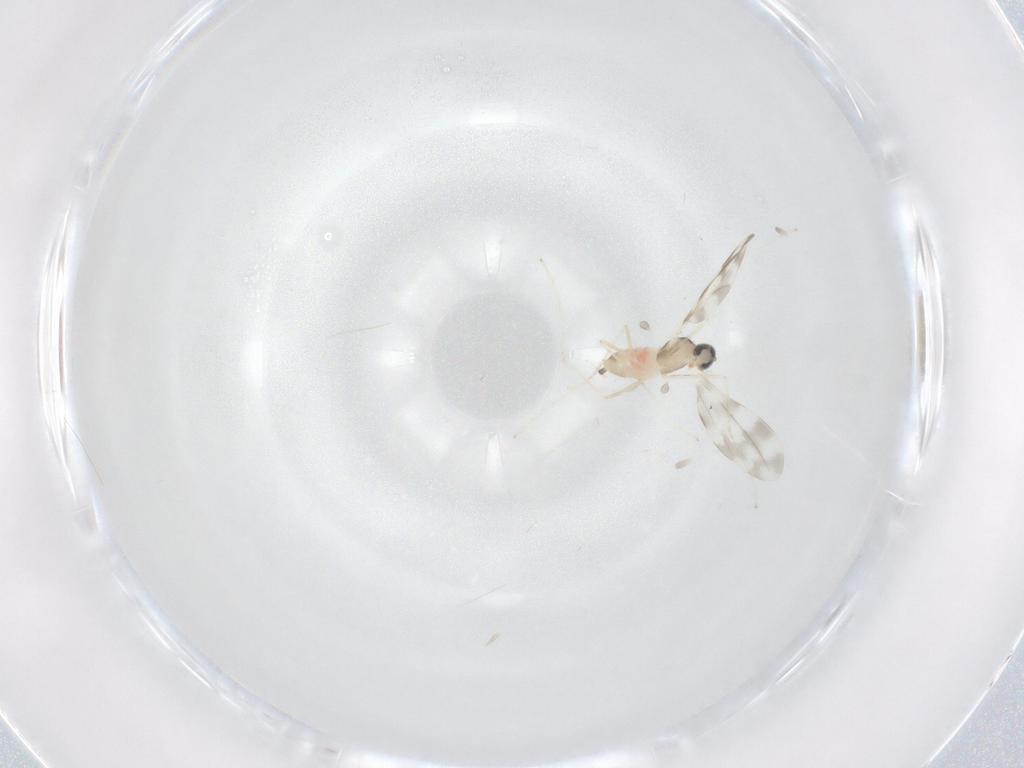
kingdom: Animalia
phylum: Arthropoda
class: Insecta
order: Diptera
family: Cecidomyiidae
